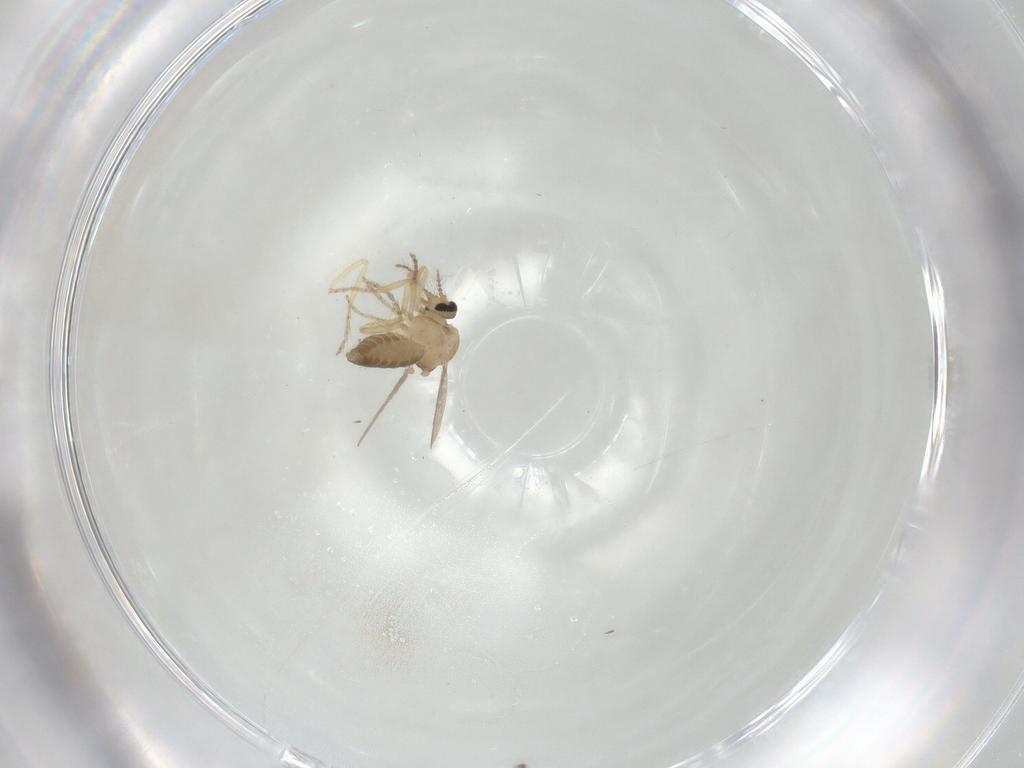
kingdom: Animalia
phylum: Arthropoda
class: Insecta
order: Diptera
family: Ceratopogonidae
